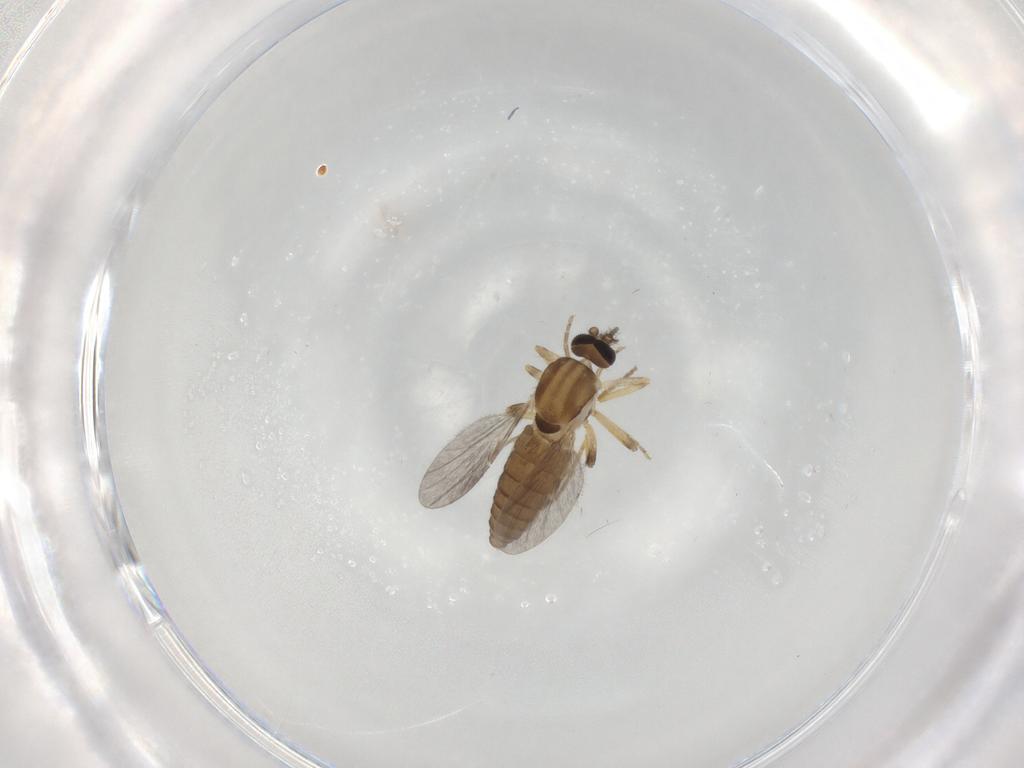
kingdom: Animalia
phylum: Arthropoda
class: Insecta
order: Diptera
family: Ceratopogonidae
